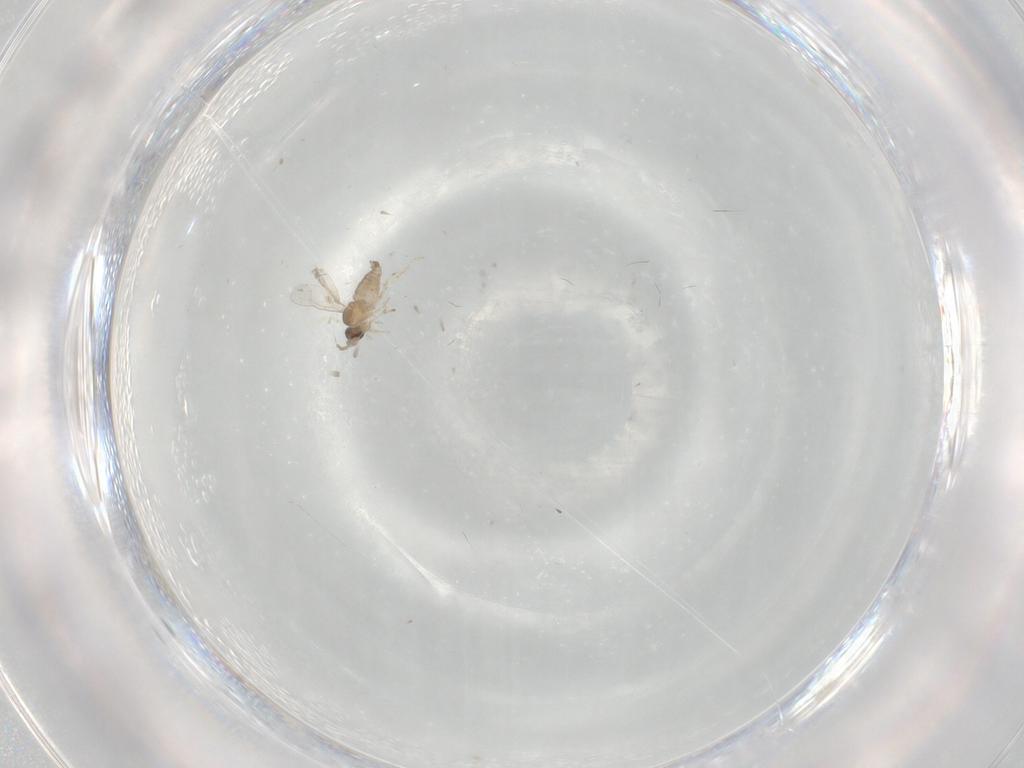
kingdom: Animalia
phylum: Arthropoda
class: Insecta
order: Diptera
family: Cecidomyiidae
